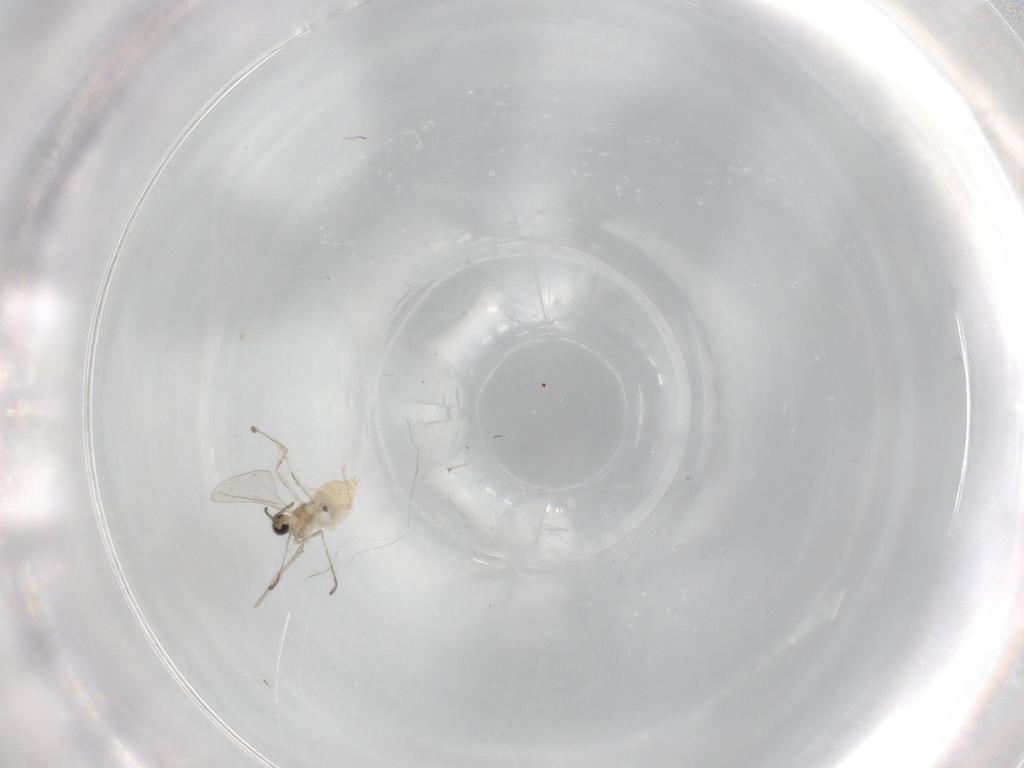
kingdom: Animalia
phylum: Arthropoda
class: Insecta
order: Diptera
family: Cecidomyiidae
